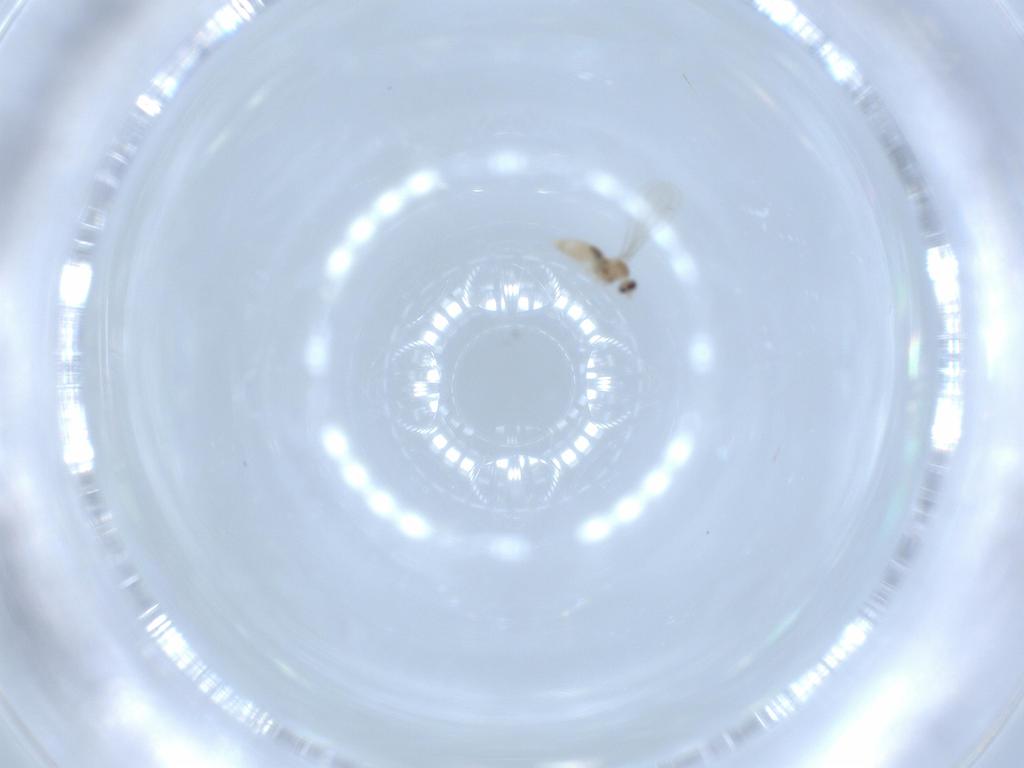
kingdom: Animalia
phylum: Arthropoda
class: Insecta
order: Diptera
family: Cecidomyiidae
